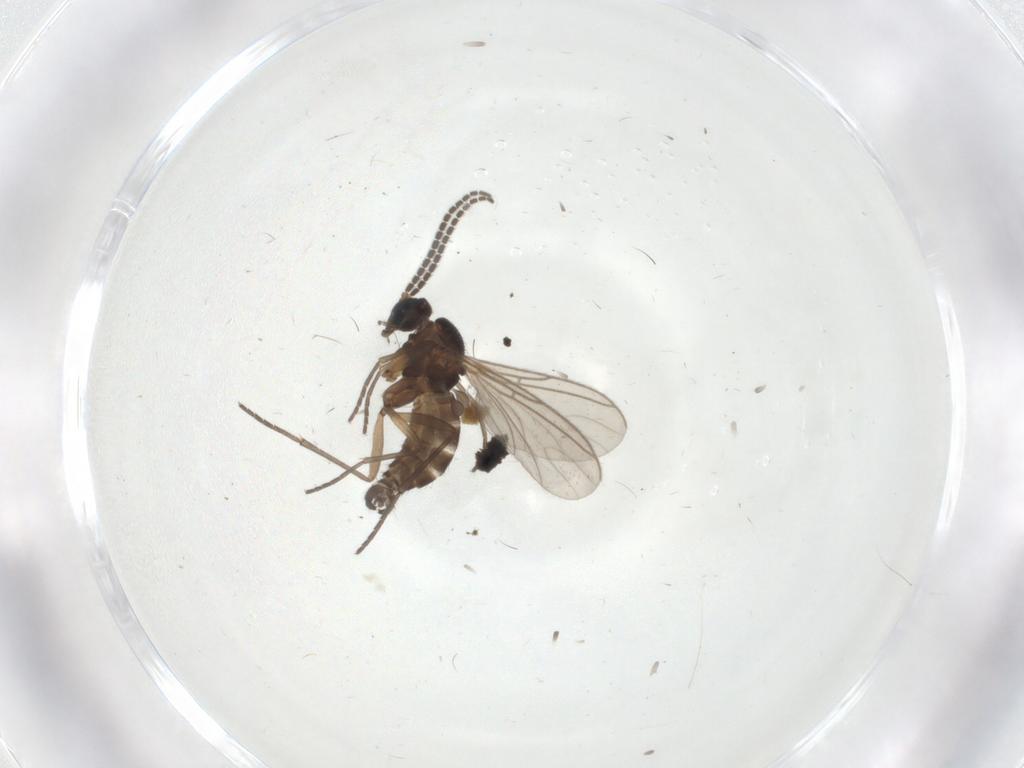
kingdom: Animalia
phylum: Arthropoda
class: Insecta
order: Diptera
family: Sciaridae
